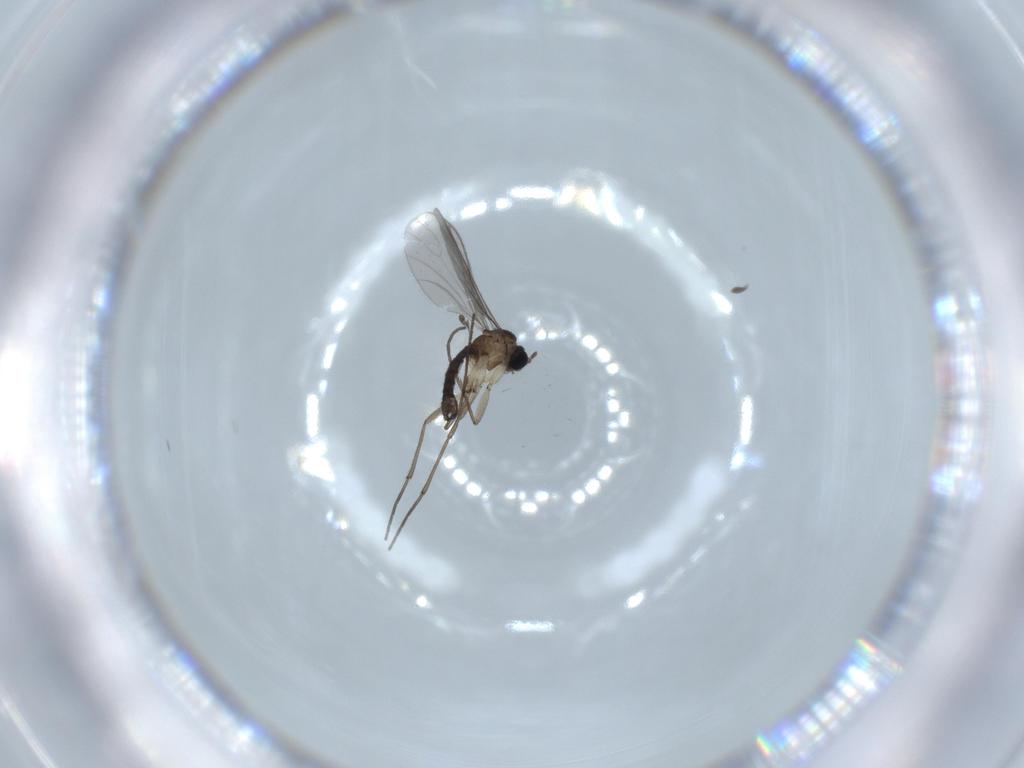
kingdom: Animalia
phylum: Arthropoda
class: Insecta
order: Diptera
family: Sciaridae
